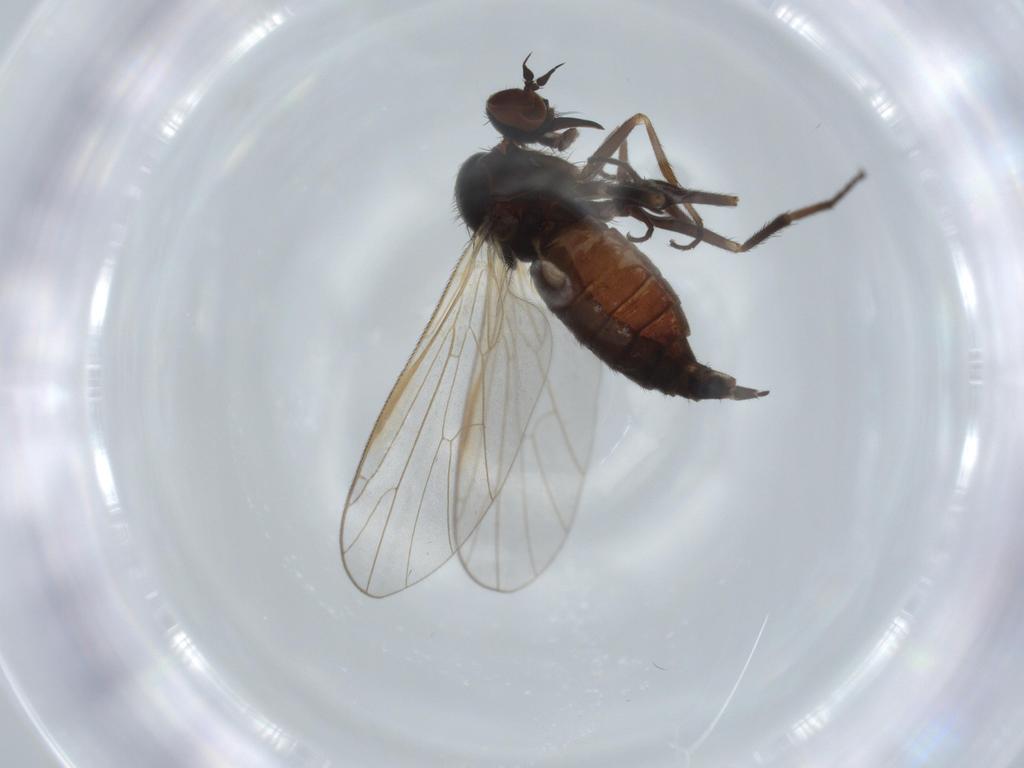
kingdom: Animalia
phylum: Arthropoda
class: Insecta
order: Diptera
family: Empididae
